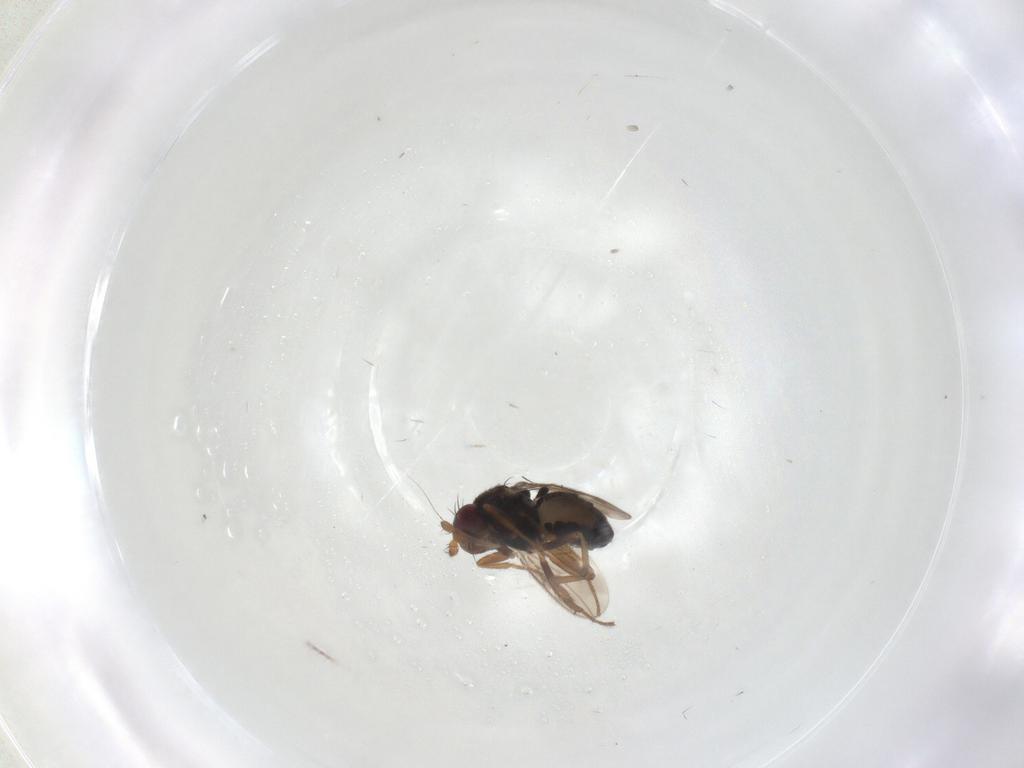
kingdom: Animalia
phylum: Arthropoda
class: Insecta
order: Diptera
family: Sphaeroceridae
